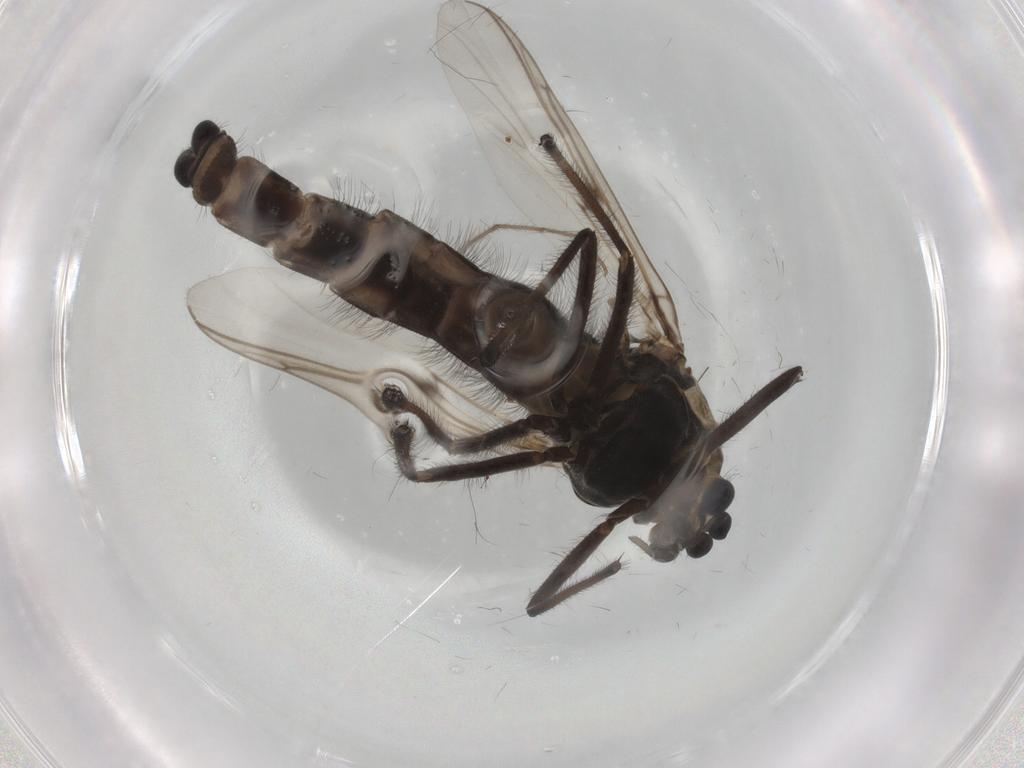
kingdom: Animalia
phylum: Arthropoda
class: Insecta
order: Diptera
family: Ceratopogonidae
